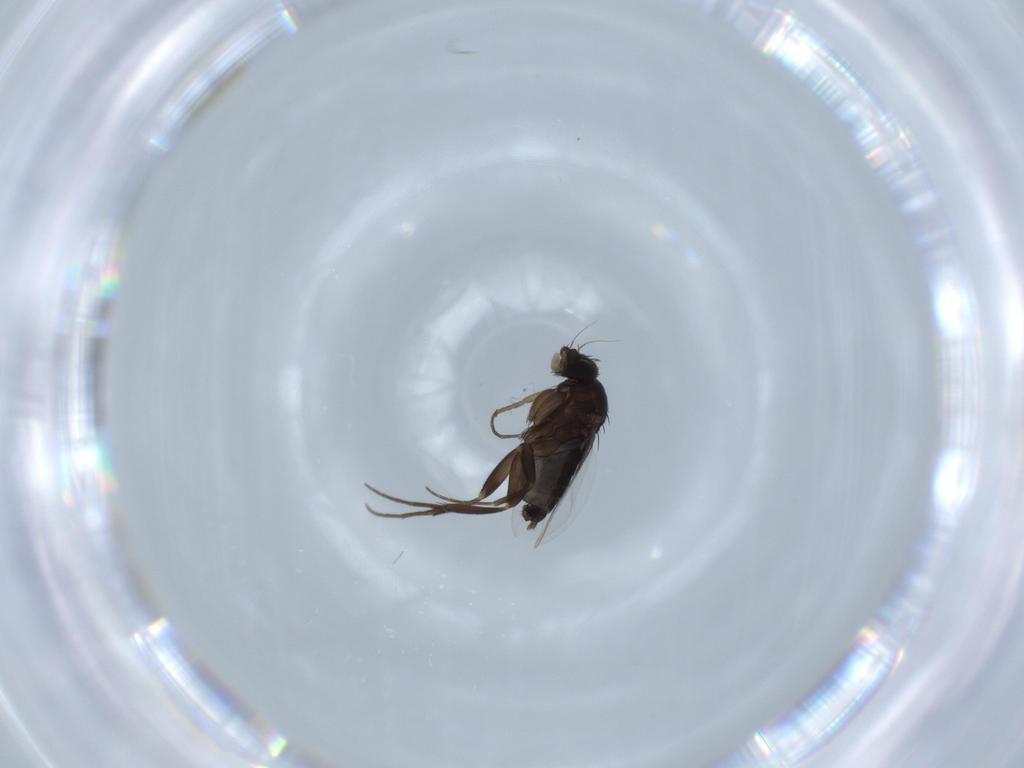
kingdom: Animalia
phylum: Arthropoda
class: Insecta
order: Diptera
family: Phoridae
